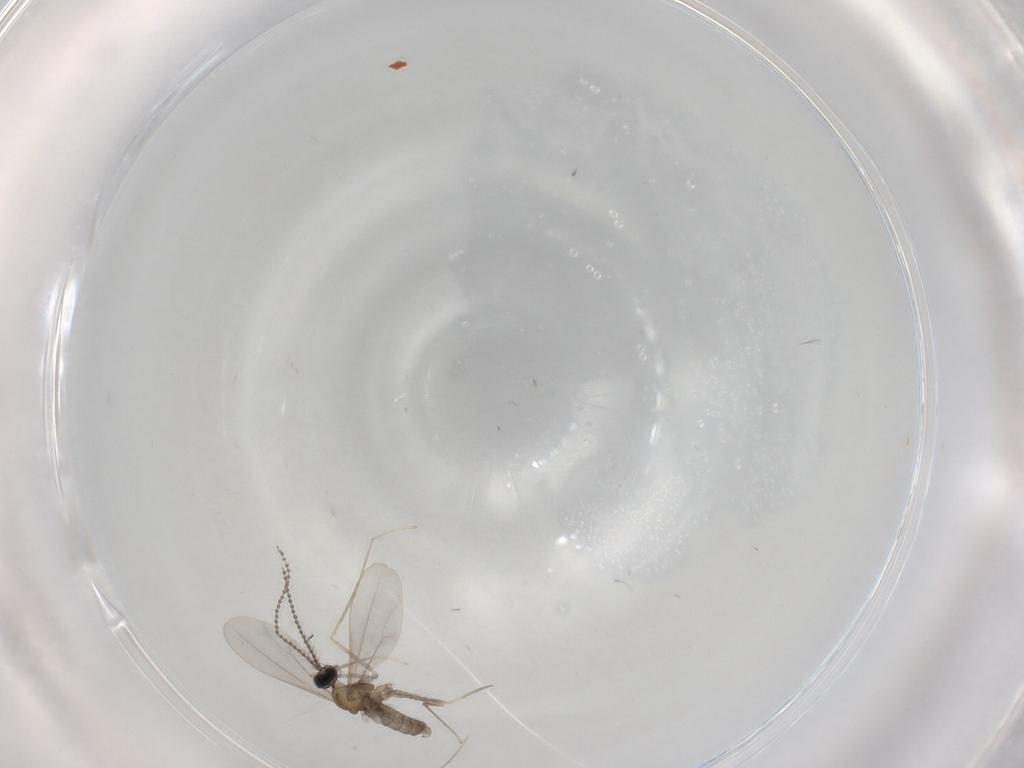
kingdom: Animalia
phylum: Arthropoda
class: Insecta
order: Diptera
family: Cecidomyiidae
